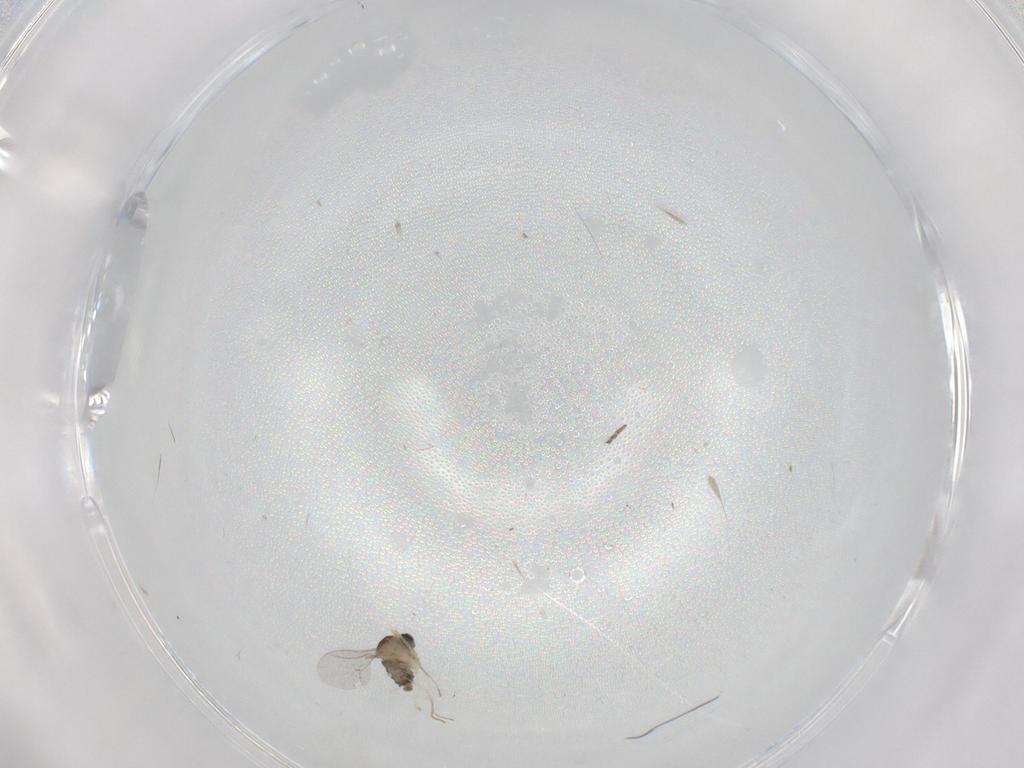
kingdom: Animalia
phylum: Arthropoda
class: Insecta
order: Diptera
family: Cecidomyiidae
